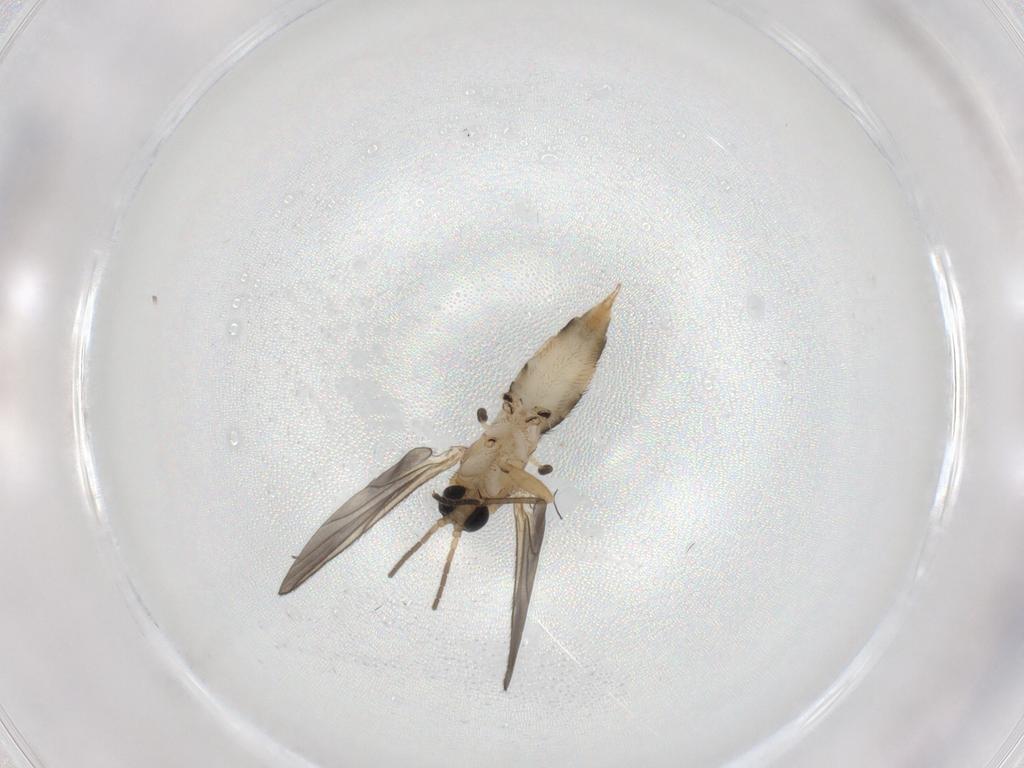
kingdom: Animalia
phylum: Arthropoda
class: Insecta
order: Diptera
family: Sciaridae
